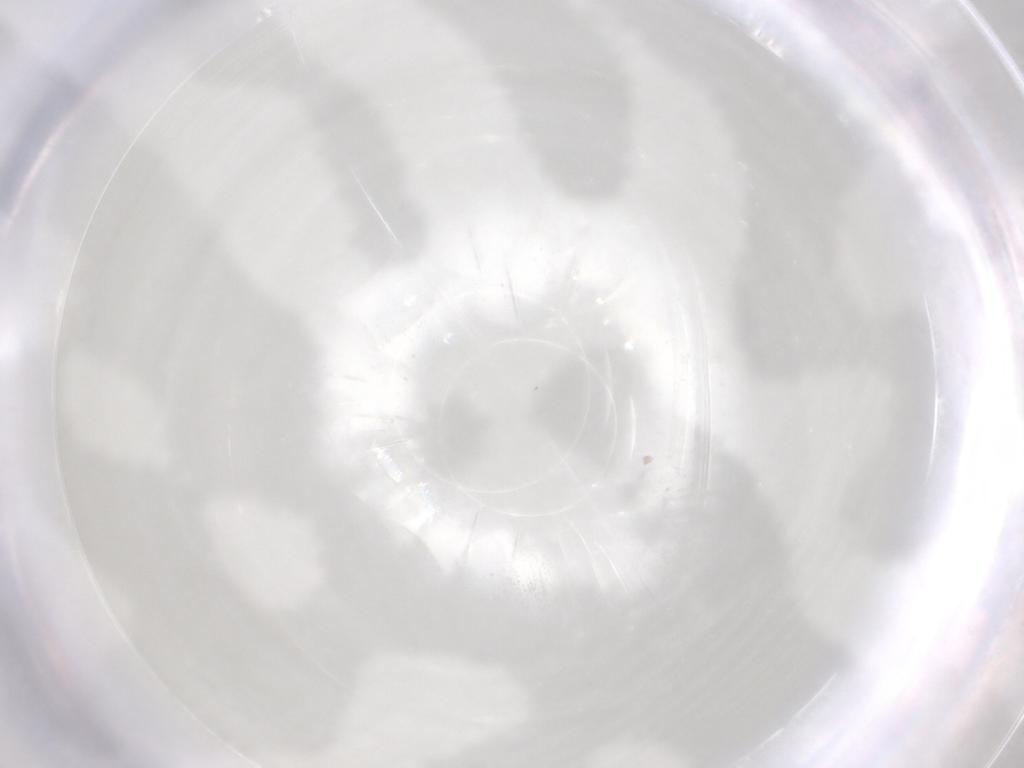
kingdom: Animalia
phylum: Arthropoda
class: Arachnida
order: Trombidiformes
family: Microtrombidiidae
